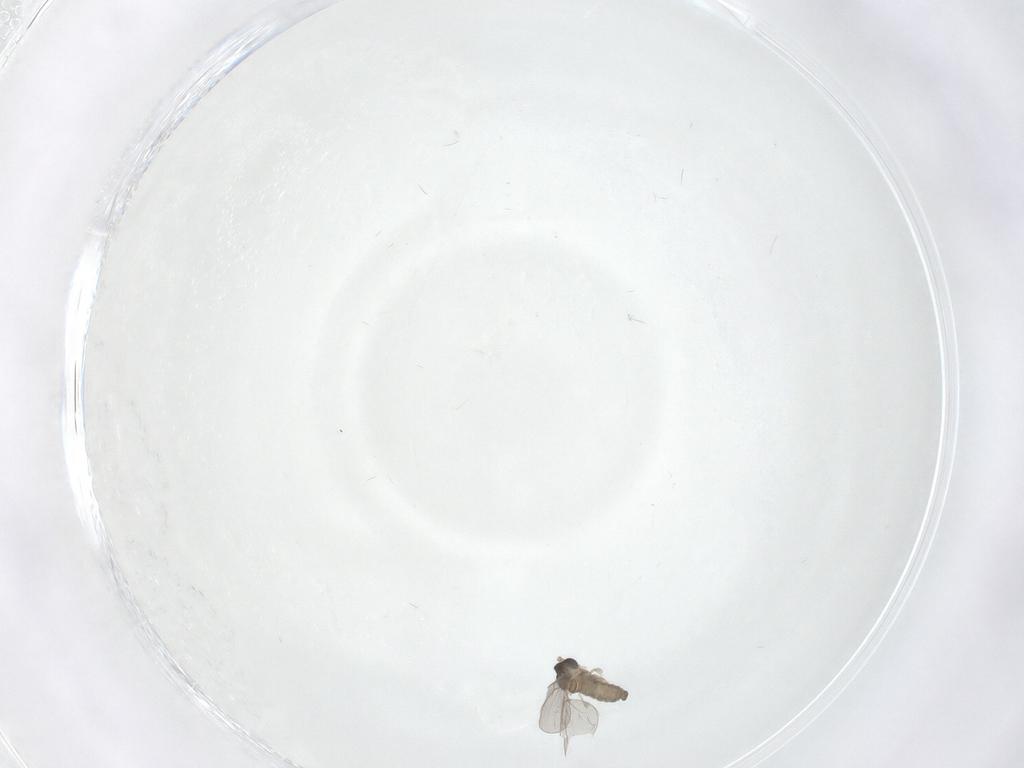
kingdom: Animalia
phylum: Arthropoda
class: Insecta
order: Diptera
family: Cecidomyiidae
